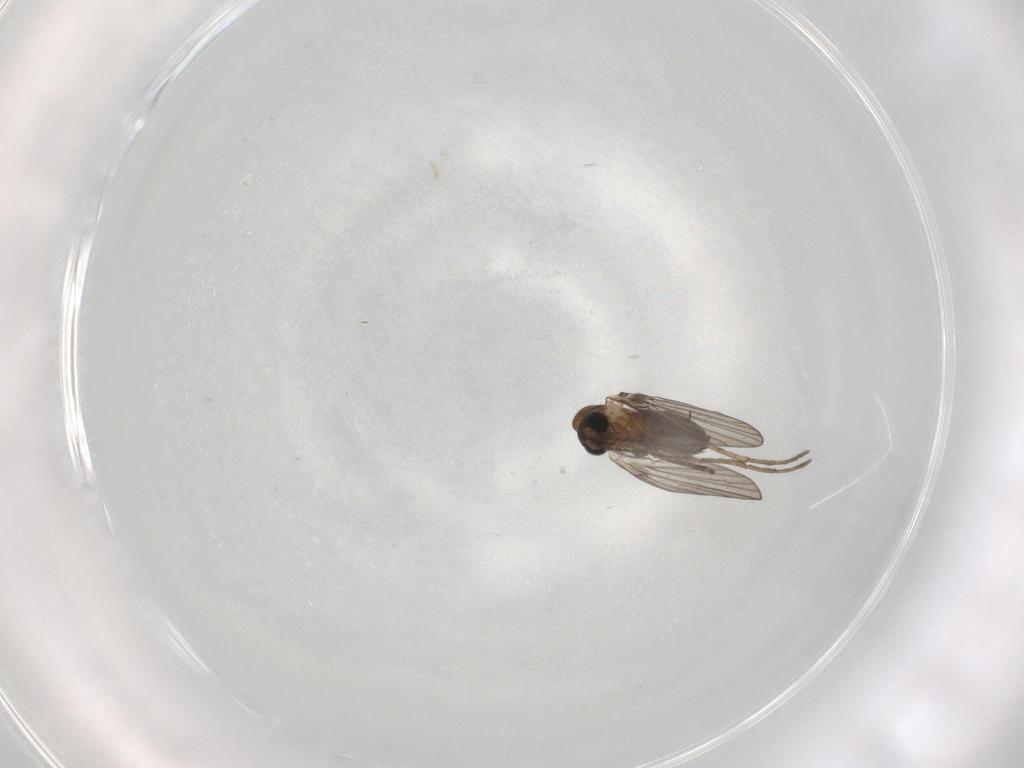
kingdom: Animalia
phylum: Arthropoda
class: Insecta
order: Diptera
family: Psychodidae
